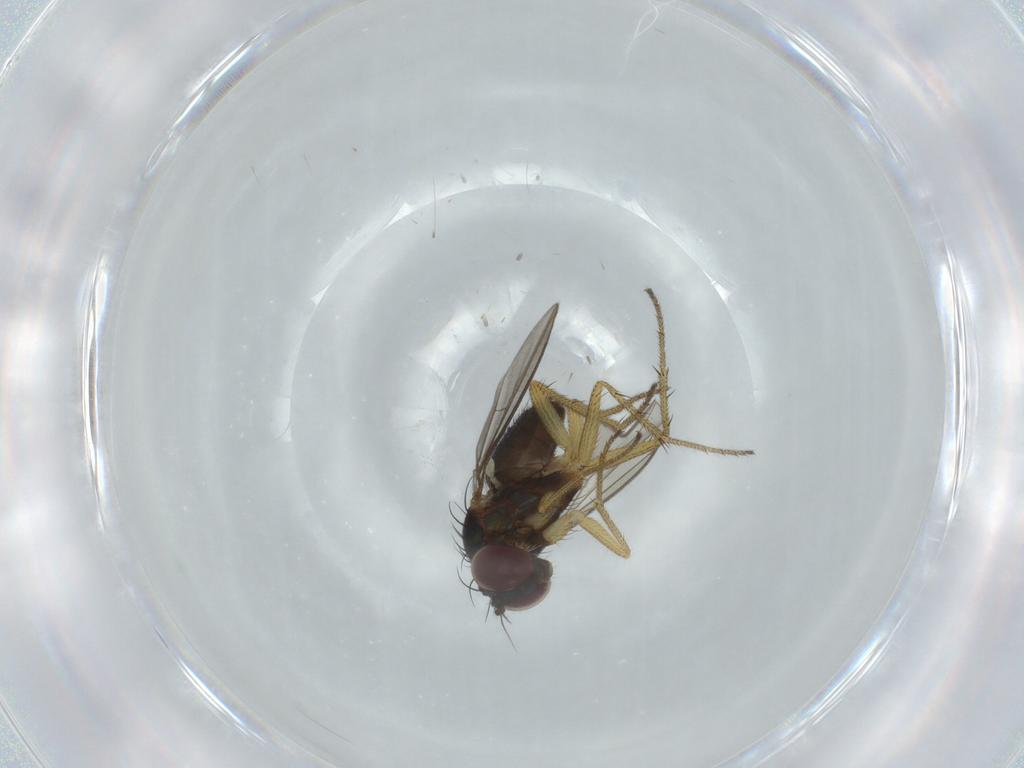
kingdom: Animalia
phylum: Arthropoda
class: Insecta
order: Diptera
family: Dolichopodidae
